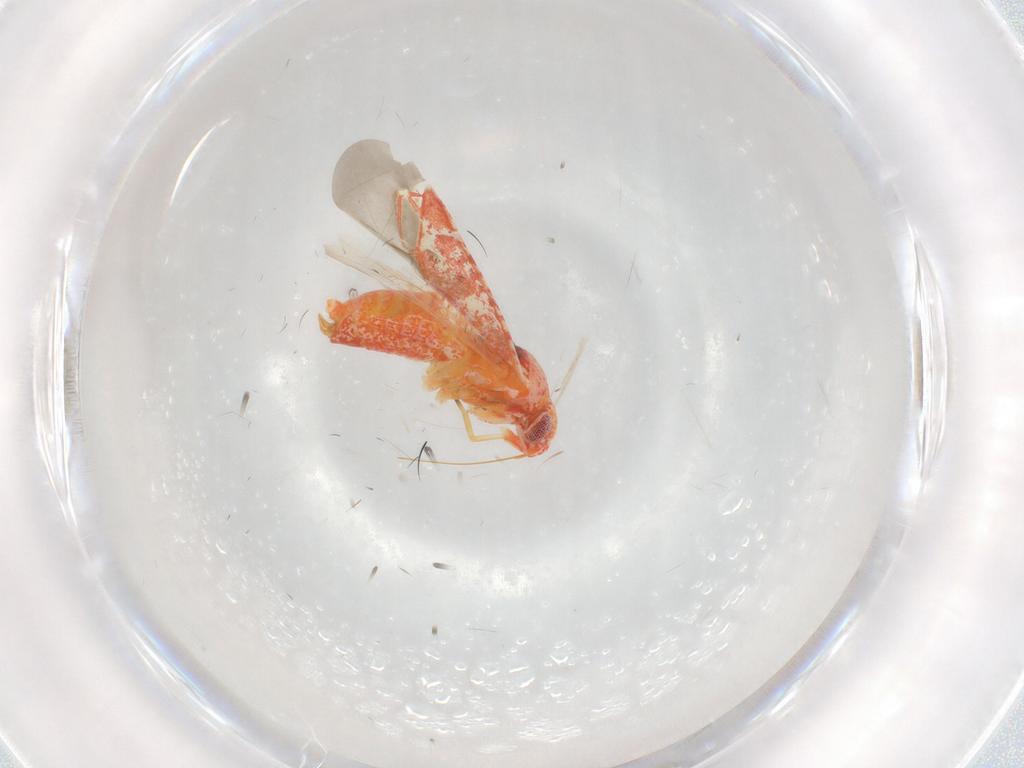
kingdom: Animalia
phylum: Arthropoda
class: Insecta
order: Hemiptera
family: Miridae
